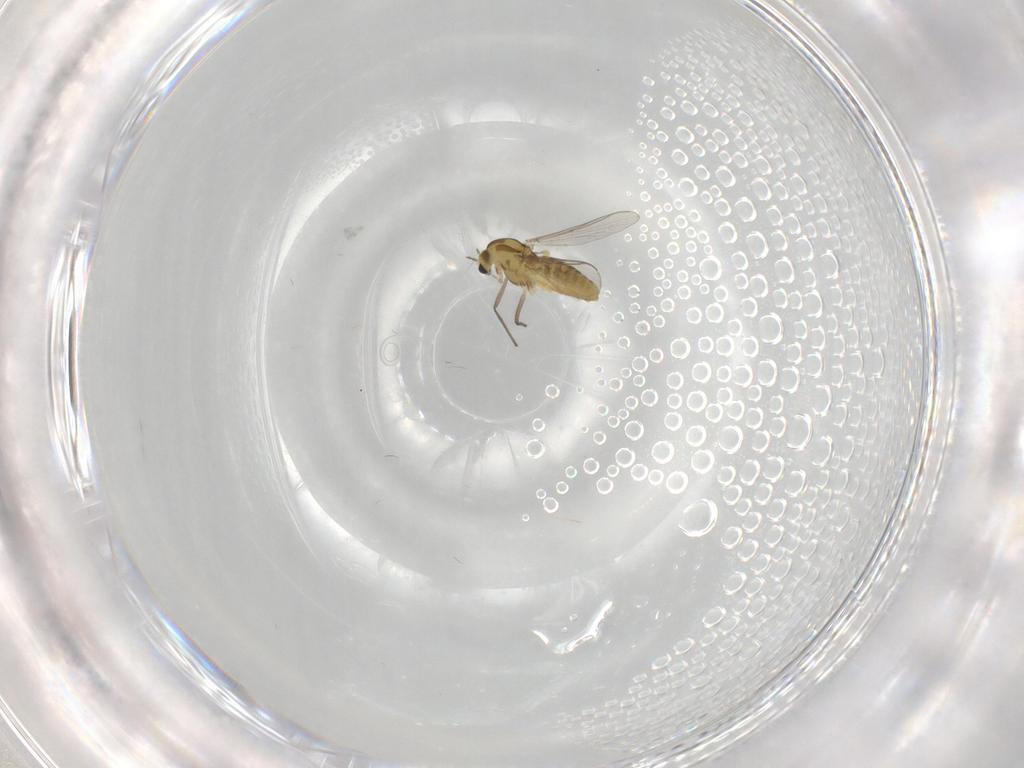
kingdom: Animalia
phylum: Arthropoda
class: Insecta
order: Diptera
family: Chironomidae
